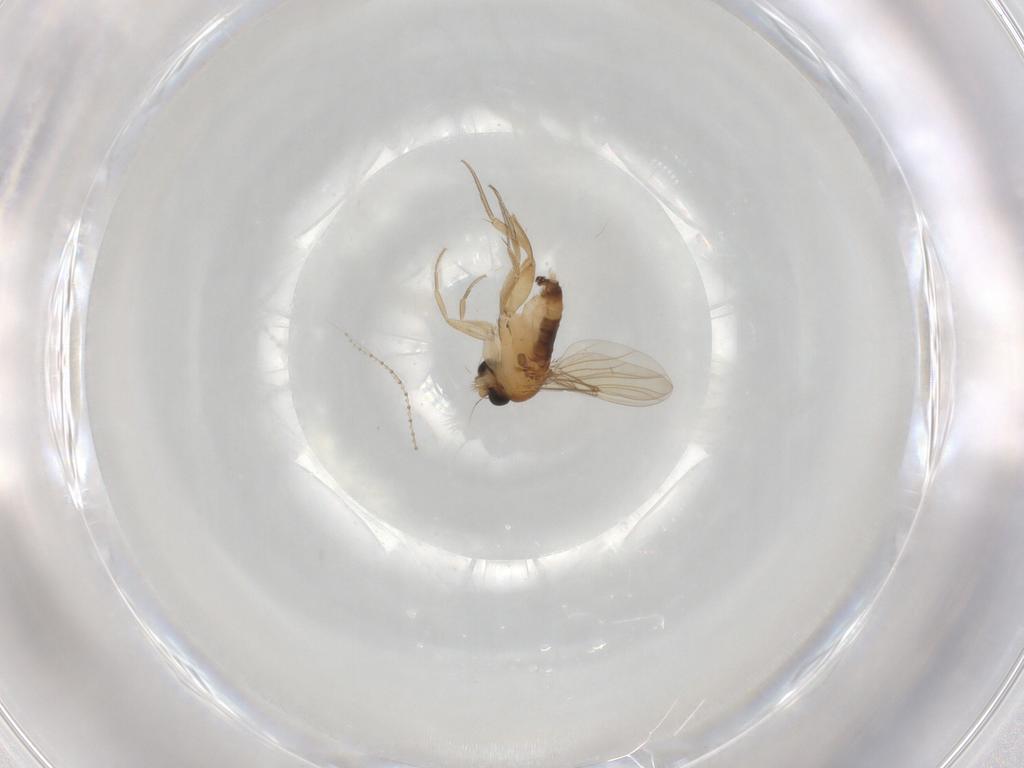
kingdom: Animalia
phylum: Arthropoda
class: Insecta
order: Diptera
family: Phoridae
